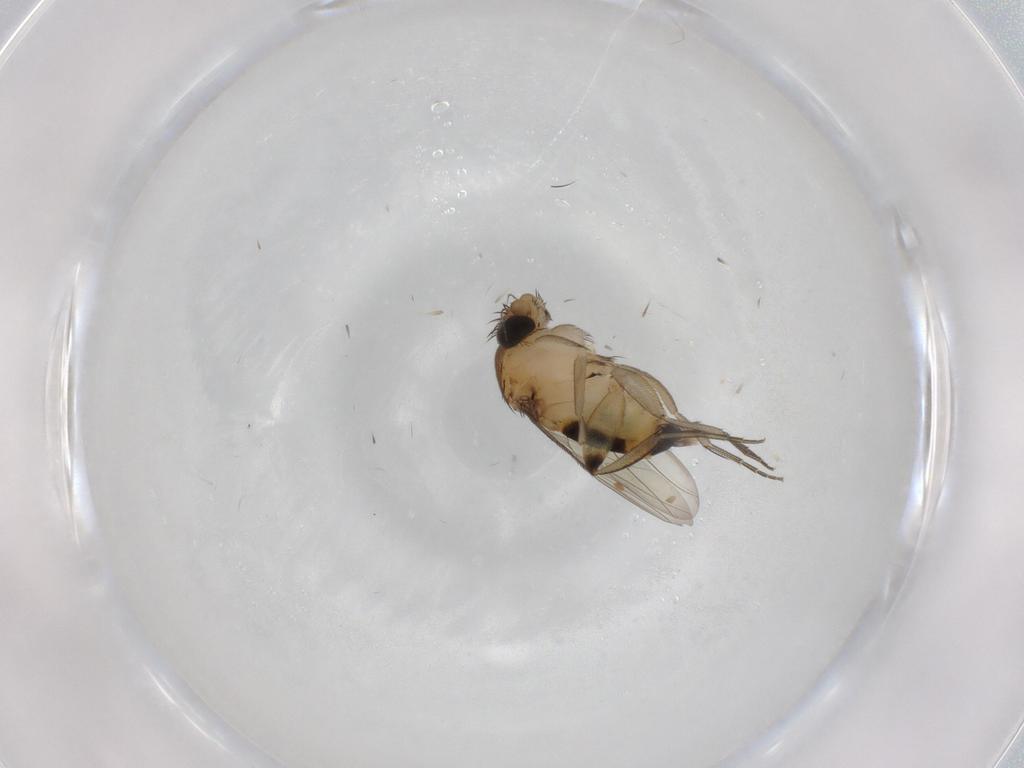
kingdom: Animalia
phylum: Arthropoda
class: Insecta
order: Diptera
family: Phoridae
